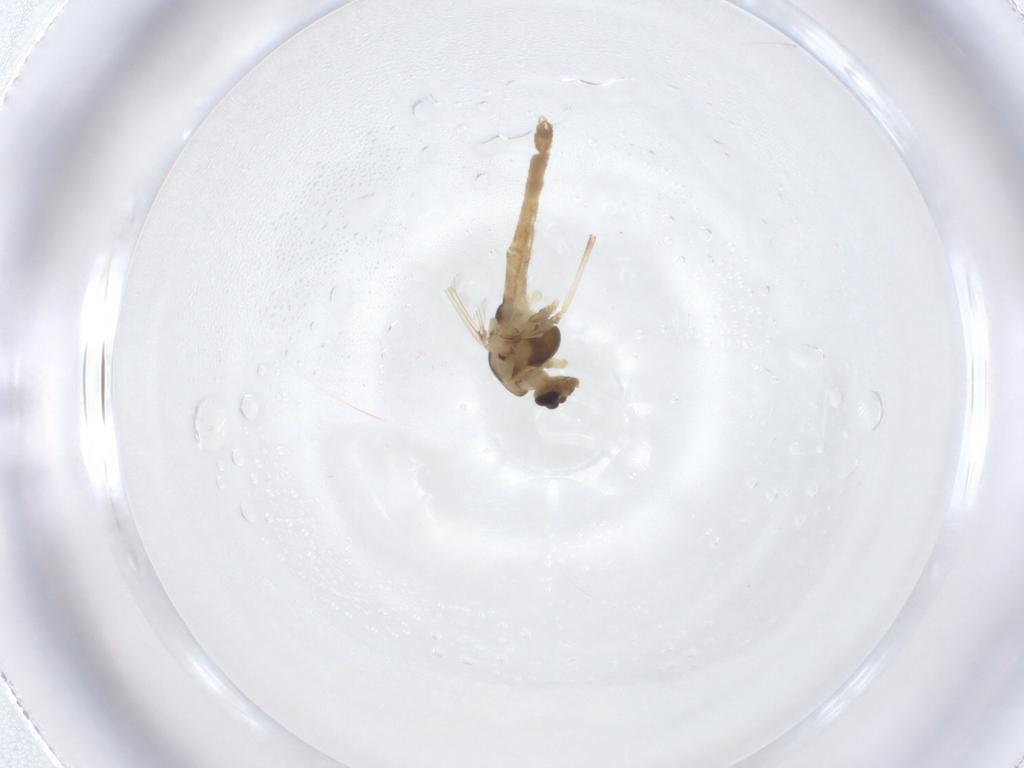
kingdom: Animalia
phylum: Arthropoda
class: Insecta
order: Diptera
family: Chironomidae
